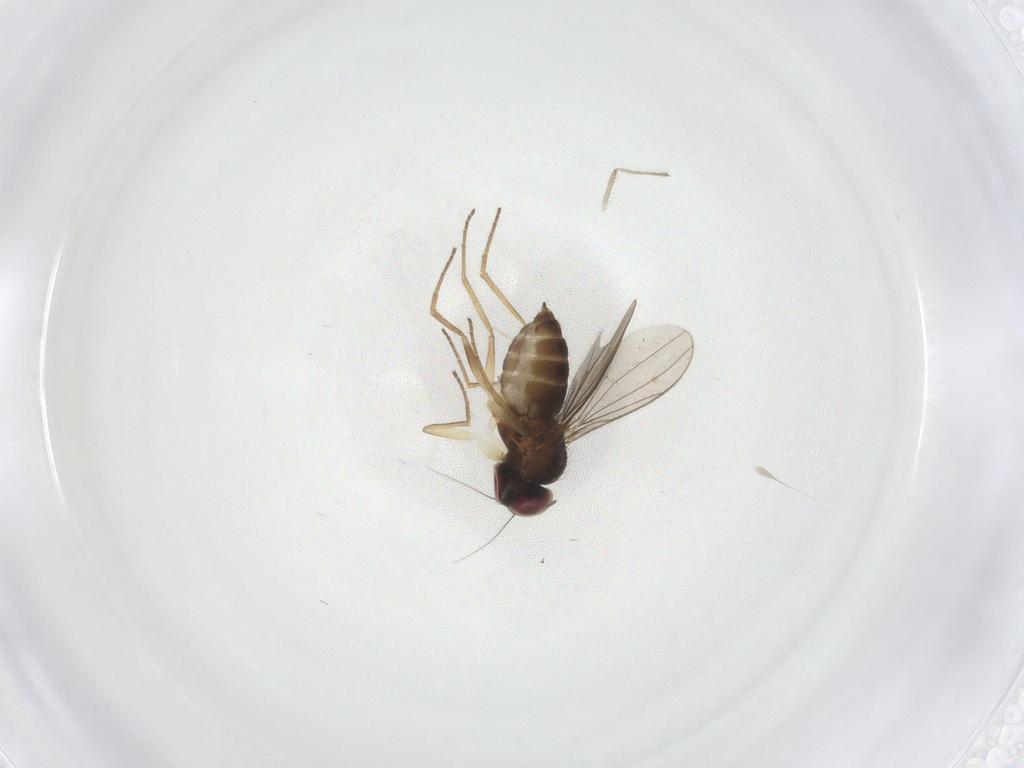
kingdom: Animalia
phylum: Arthropoda
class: Insecta
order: Diptera
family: Dolichopodidae
